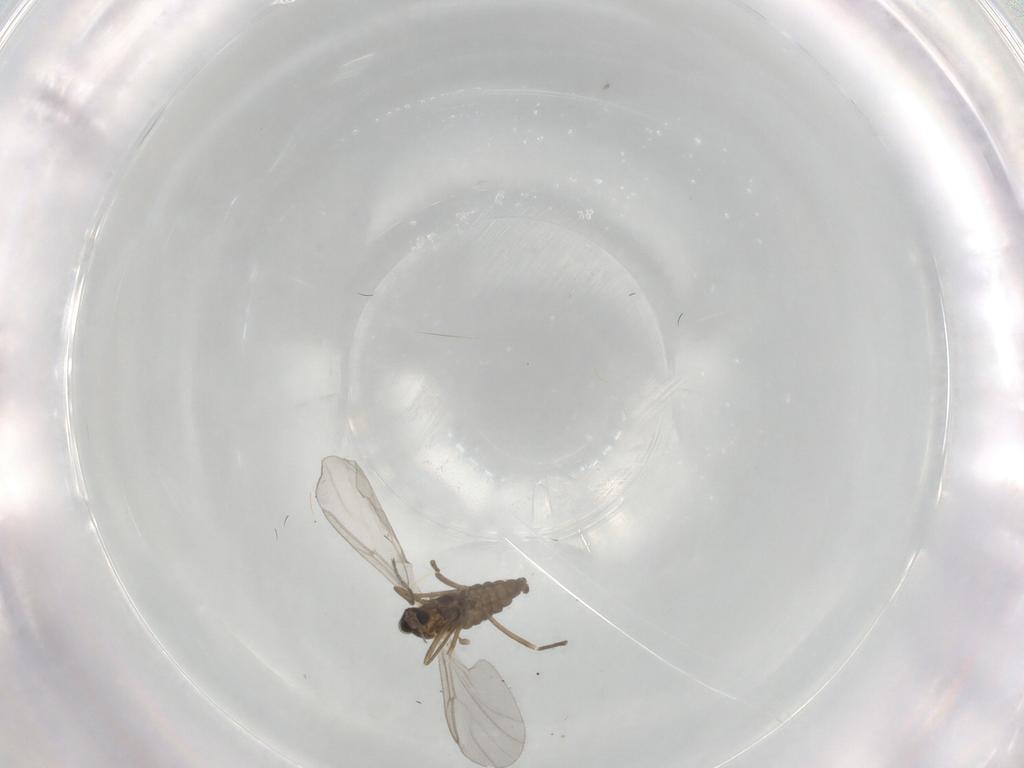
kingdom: Animalia
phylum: Arthropoda
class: Insecta
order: Diptera
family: Cecidomyiidae
